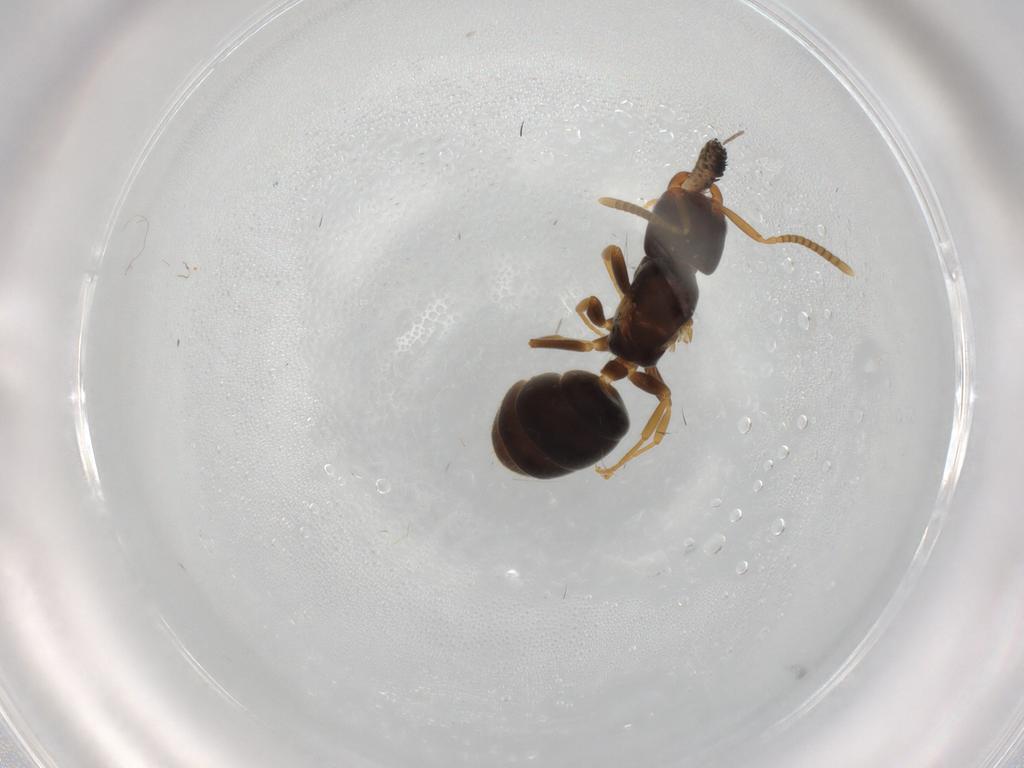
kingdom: Animalia
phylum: Arthropoda
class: Insecta
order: Hymenoptera
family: Formicidae
